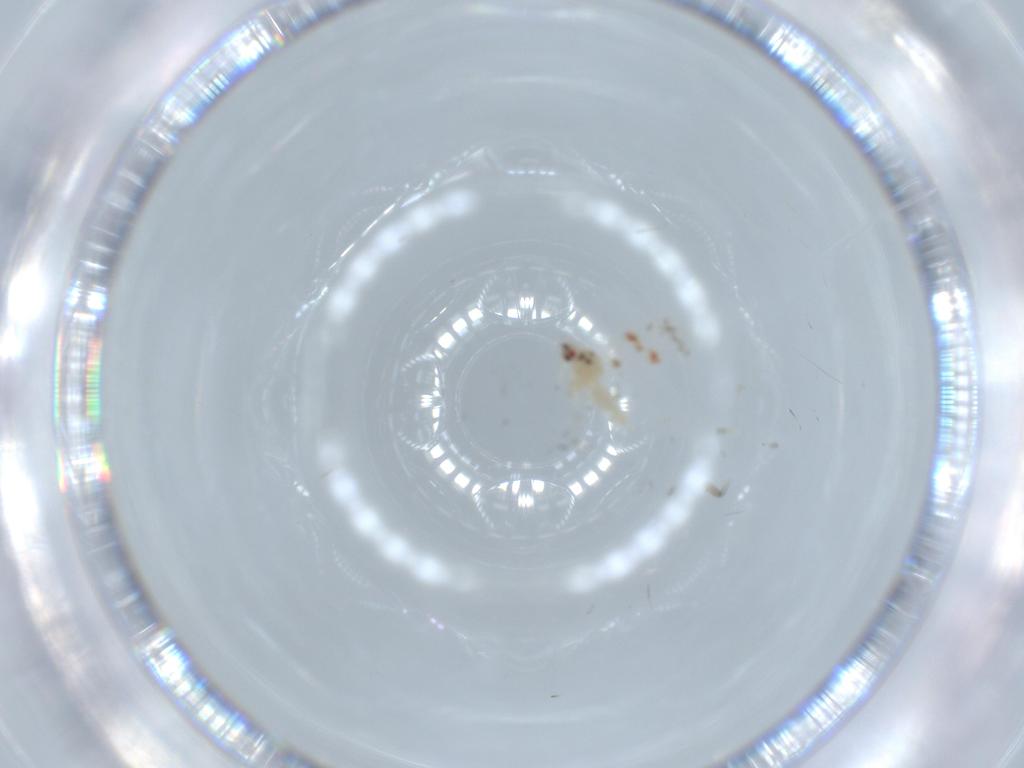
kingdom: Animalia
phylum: Arthropoda
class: Insecta
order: Hemiptera
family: Aleyrodidae
